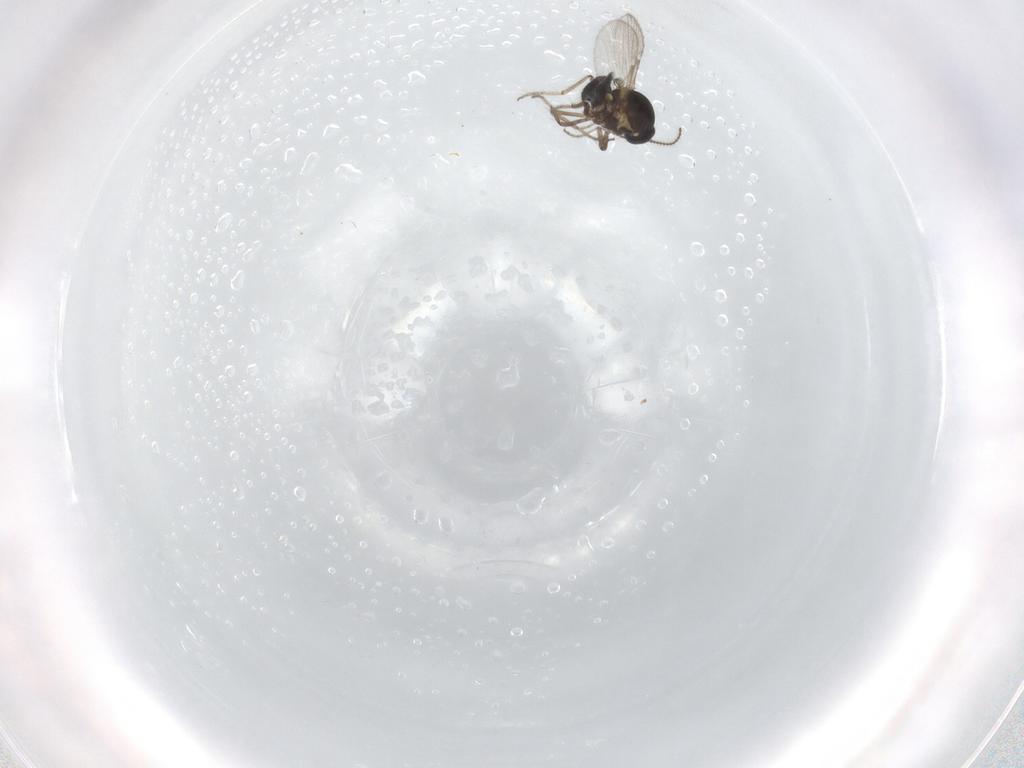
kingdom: Animalia
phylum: Arthropoda
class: Insecta
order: Diptera
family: Ceratopogonidae
